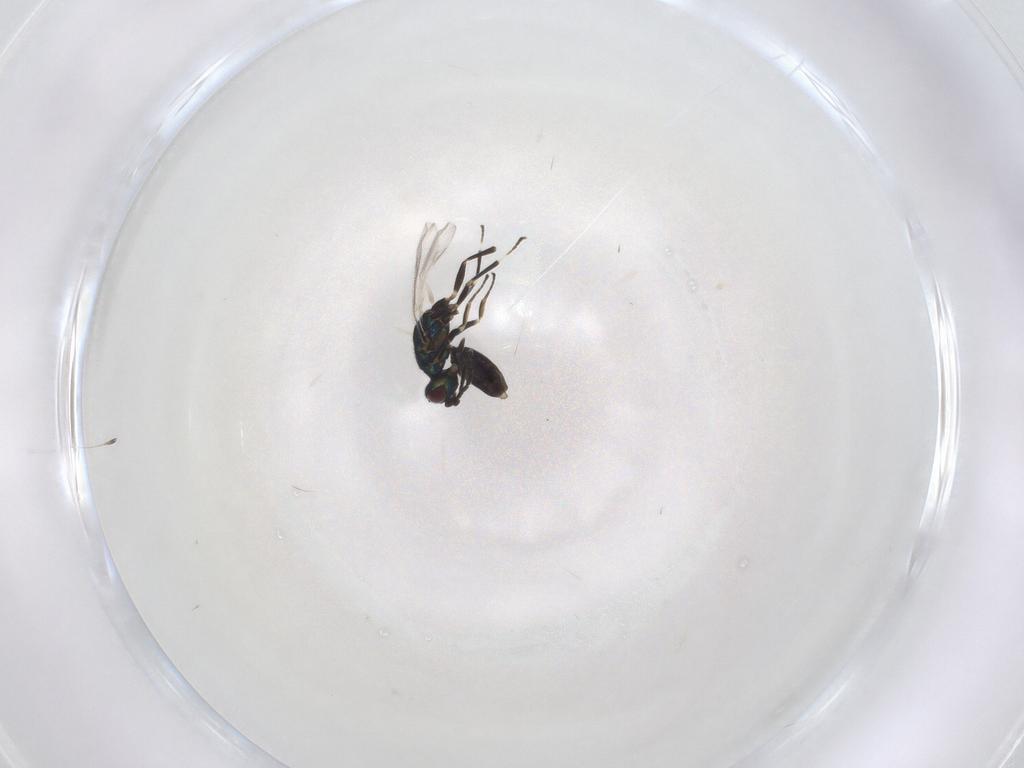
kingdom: Animalia
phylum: Arthropoda
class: Insecta
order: Hymenoptera
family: Eupelmidae
